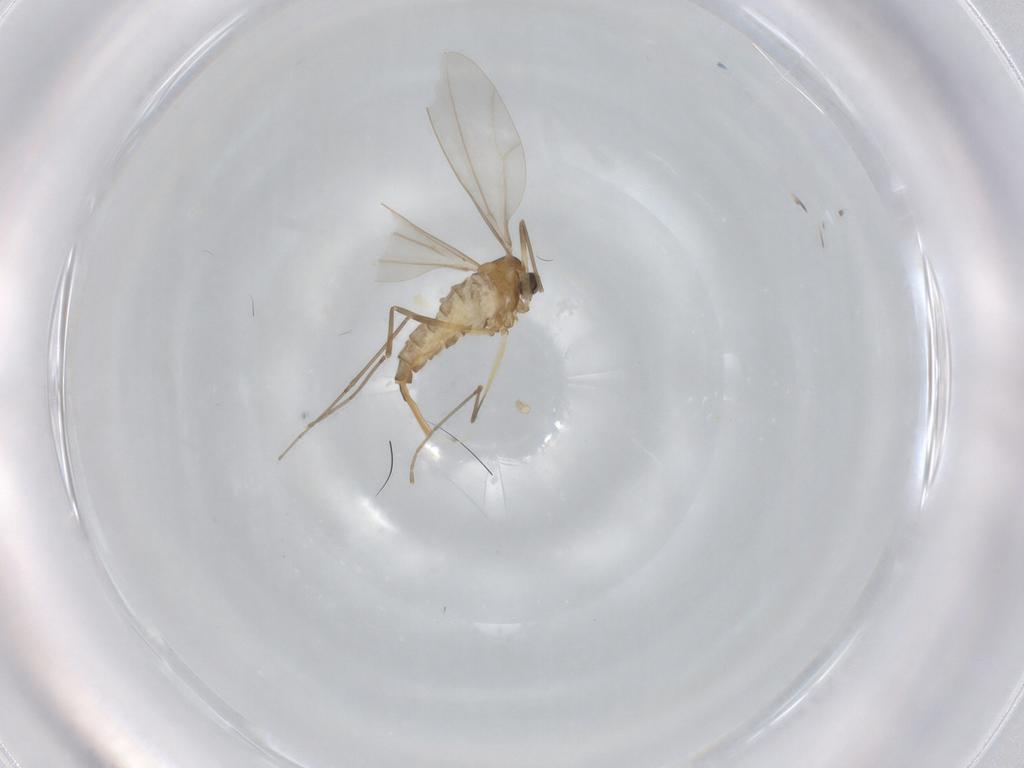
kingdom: Animalia
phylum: Arthropoda
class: Insecta
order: Diptera
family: Cecidomyiidae
